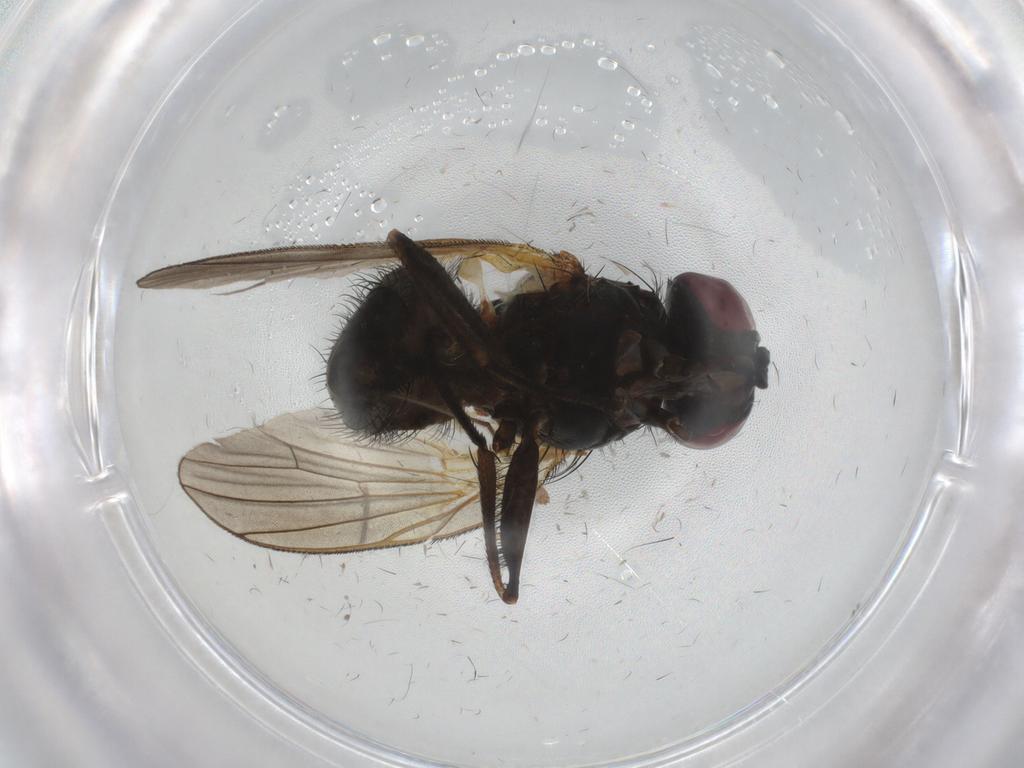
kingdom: Animalia
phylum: Arthropoda
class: Insecta
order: Diptera
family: Fannia
